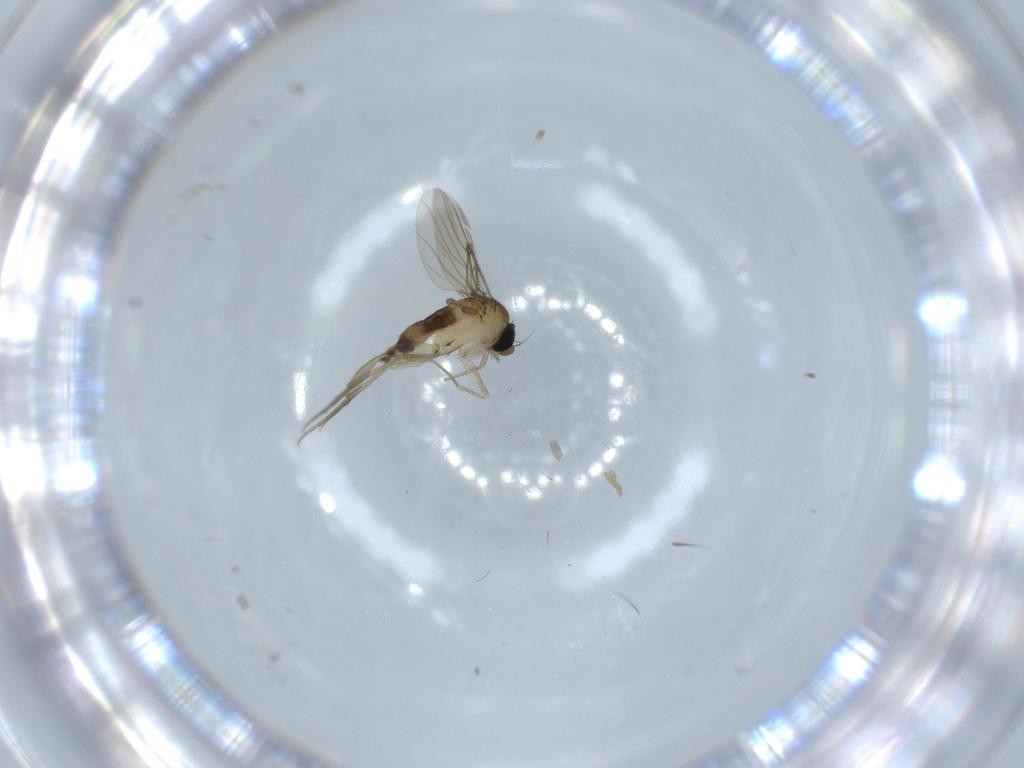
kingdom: Animalia
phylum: Arthropoda
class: Insecta
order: Diptera
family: Phoridae
